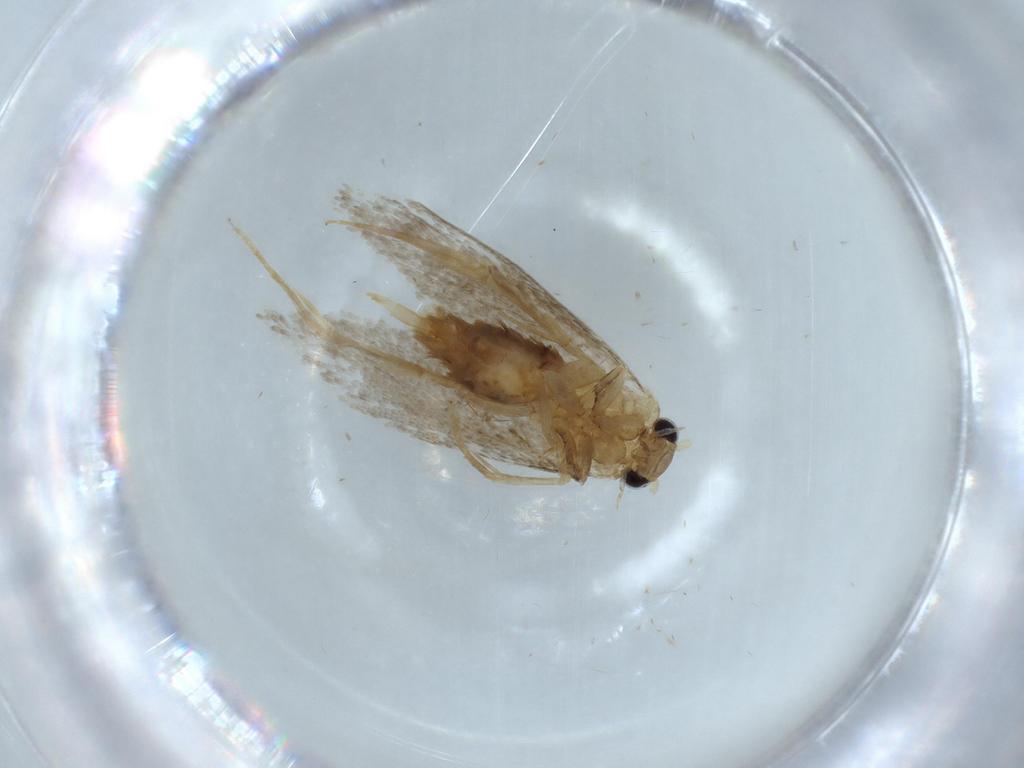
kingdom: Animalia
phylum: Arthropoda
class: Insecta
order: Lepidoptera
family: Tineidae
